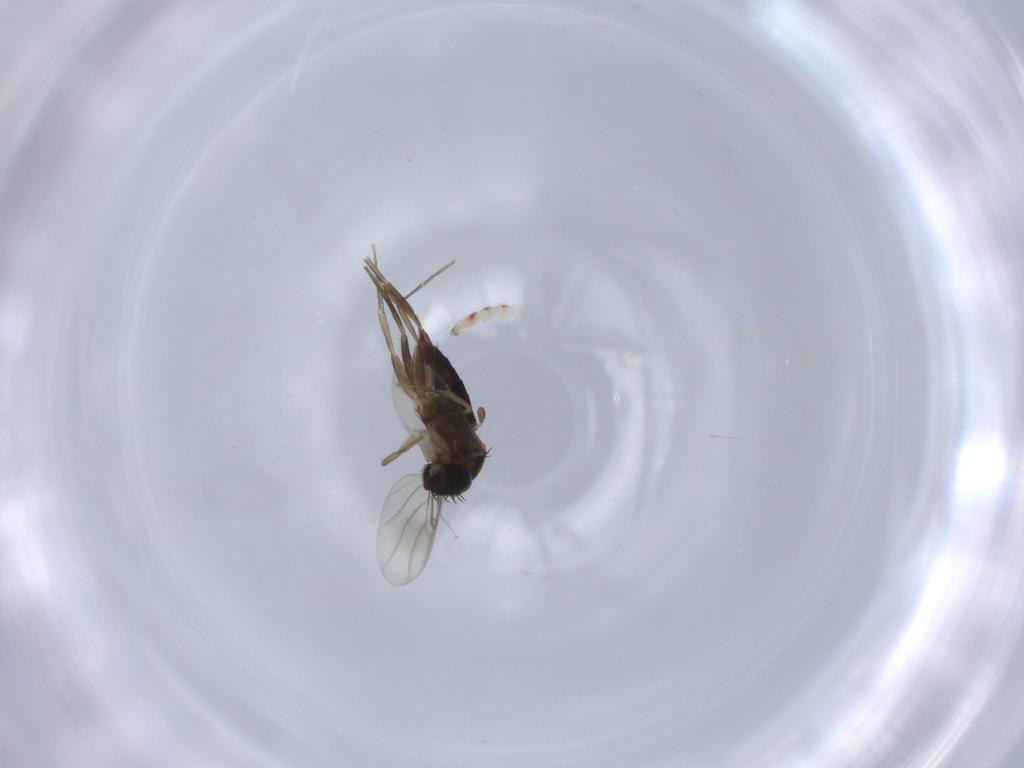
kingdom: Animalia
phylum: Arthropoda
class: Insecta
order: Diptera
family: Phoridae
